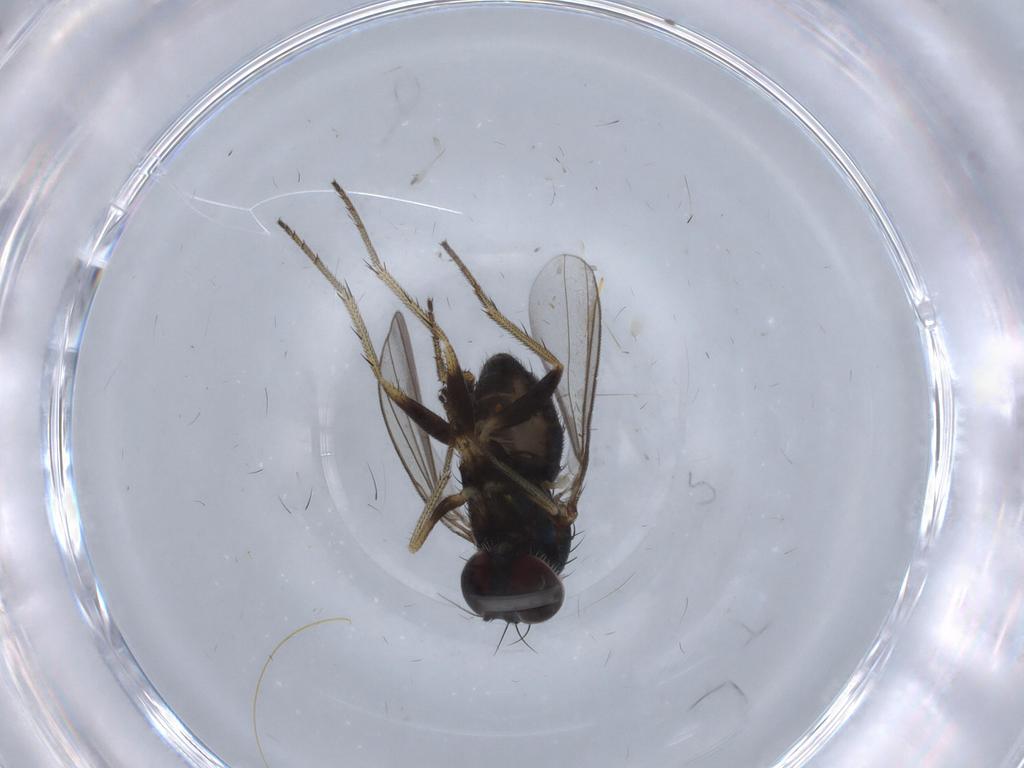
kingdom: Animalia
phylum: Arthropoda
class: Insecta
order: Diptera
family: Dolichopodidae
